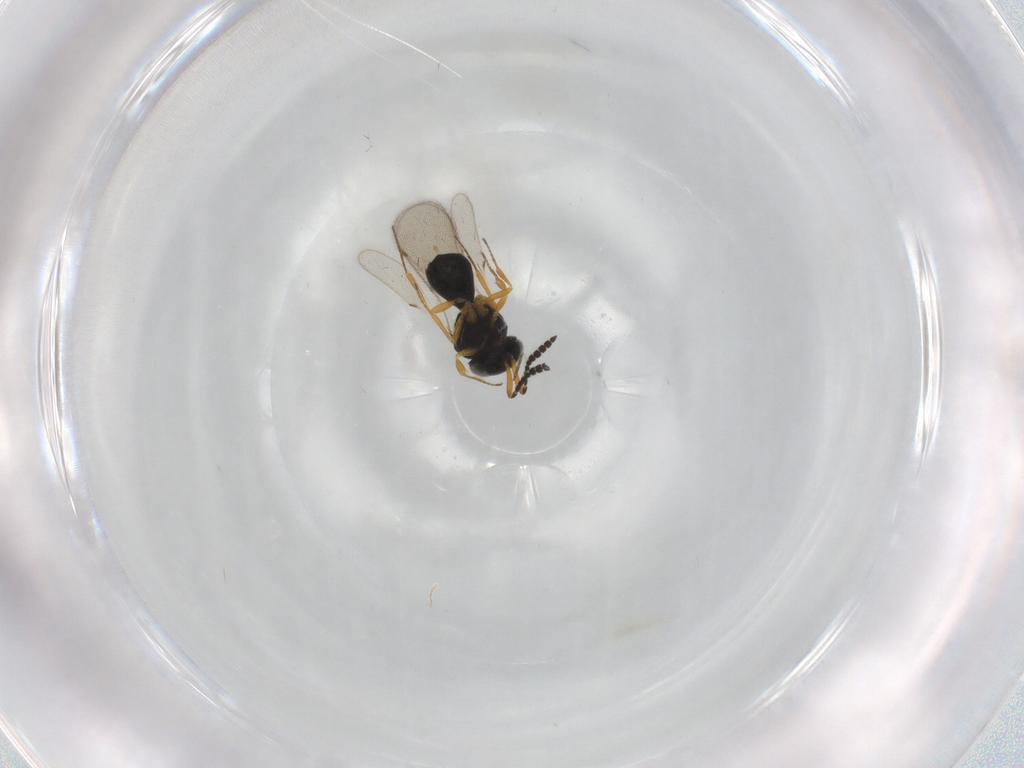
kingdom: Animalia
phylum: Arthropoda
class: Insecta
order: Hymenoptera
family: Scelionidae
